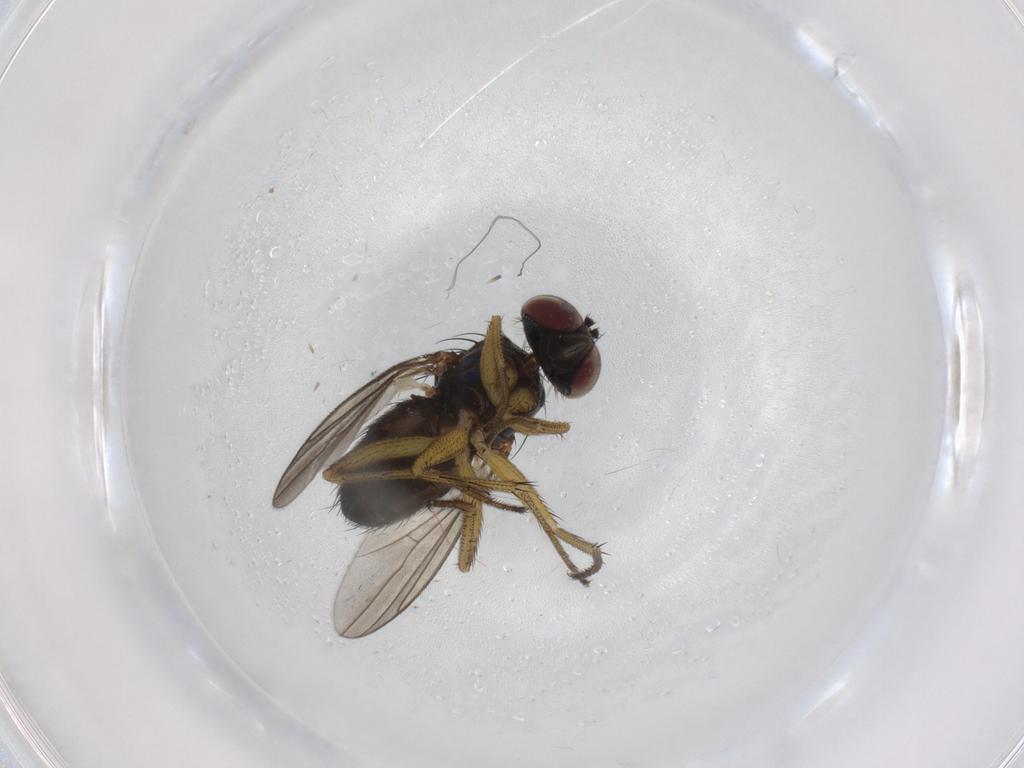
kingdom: Animalia
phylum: Arthropoda
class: Insecta
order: Diptera
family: Dolichopodidae
